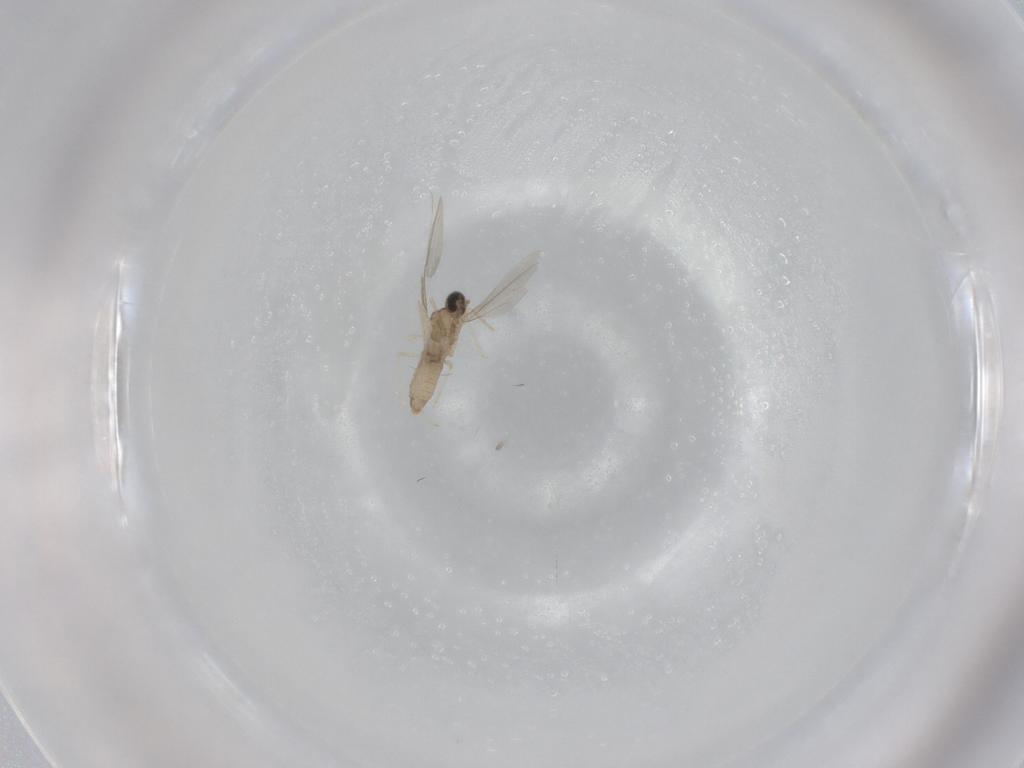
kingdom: Animalia
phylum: Arthropoda
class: Insecta
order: Diptera
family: Cecidomyiidae
